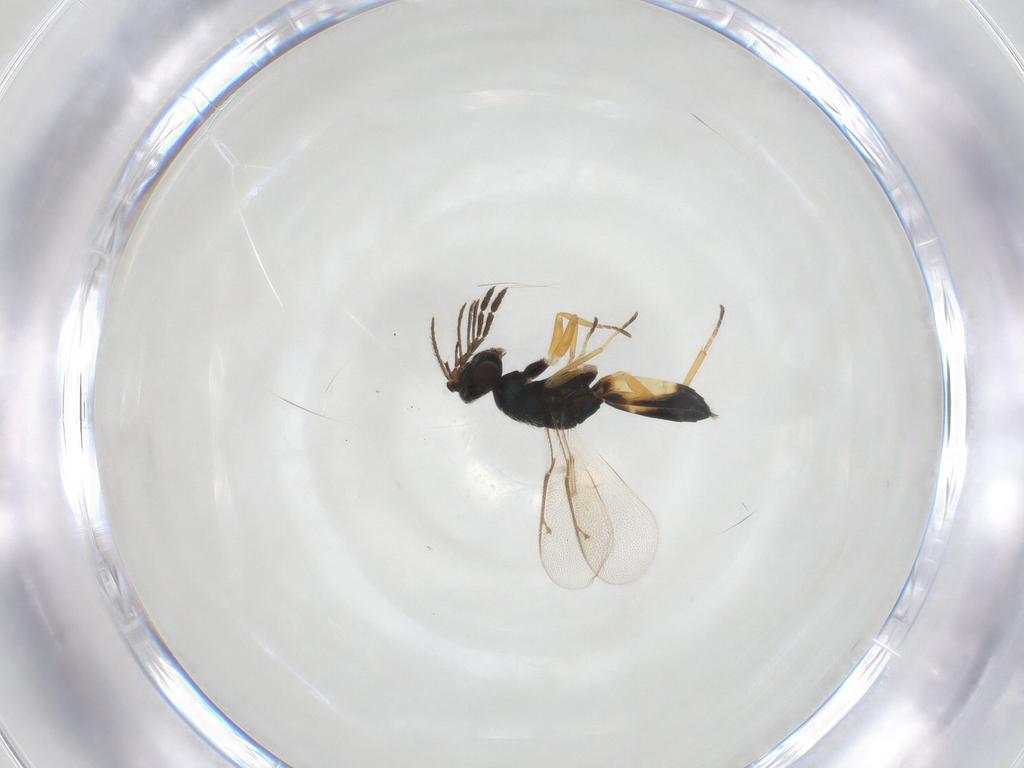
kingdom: Animalia
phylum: Arthropoda
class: Insecta
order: Hymenoptera
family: Eulophidae
